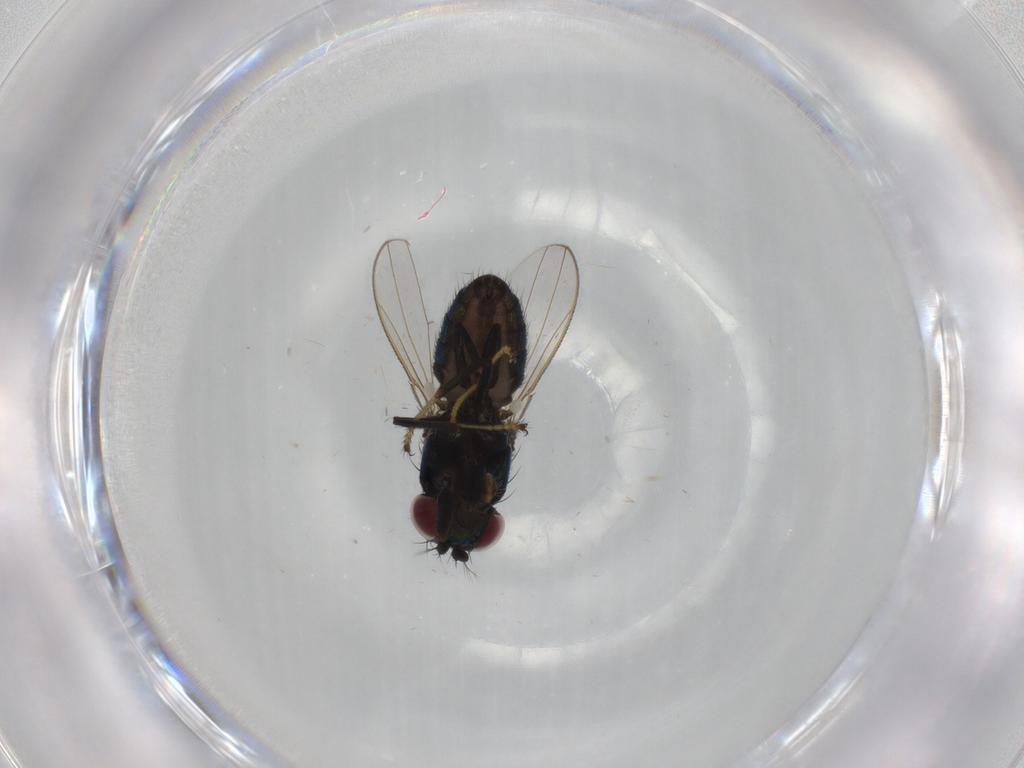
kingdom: Animalia
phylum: Arthropoda
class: Insecta
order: Diptera
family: Ephydridae
